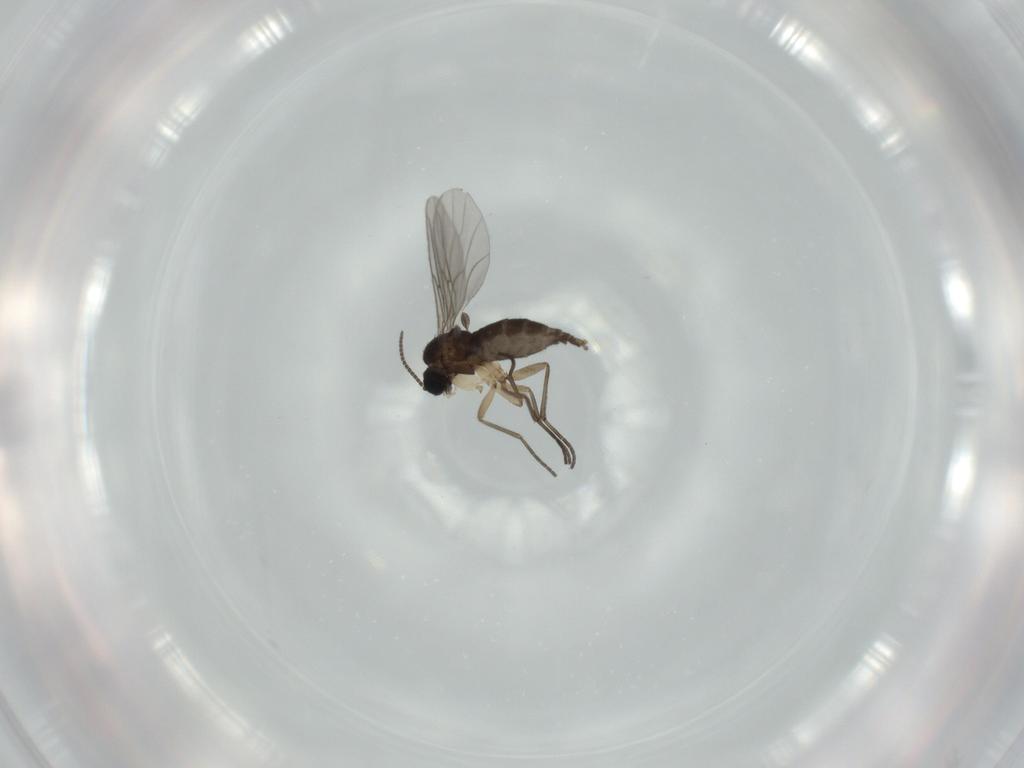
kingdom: Animalia
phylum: Arthropoda
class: Insecta
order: Diptera
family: Sciaridae
